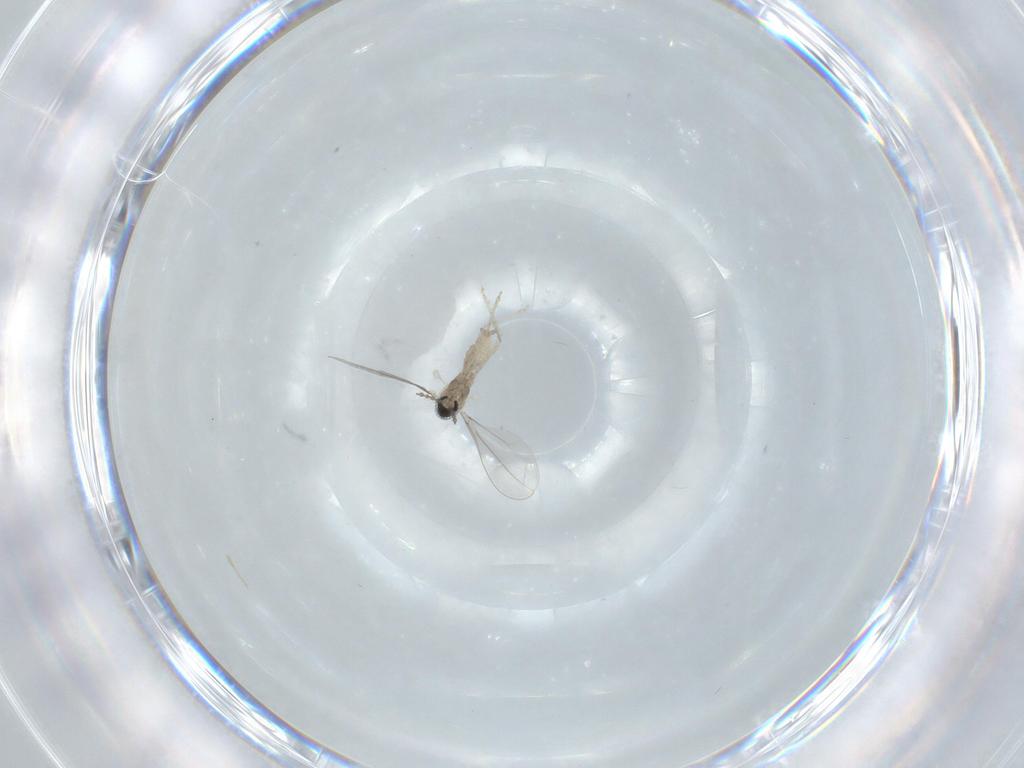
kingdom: Animalia
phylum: Arthropoda
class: Insecta
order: Diptera
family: Cecidomyiidae
